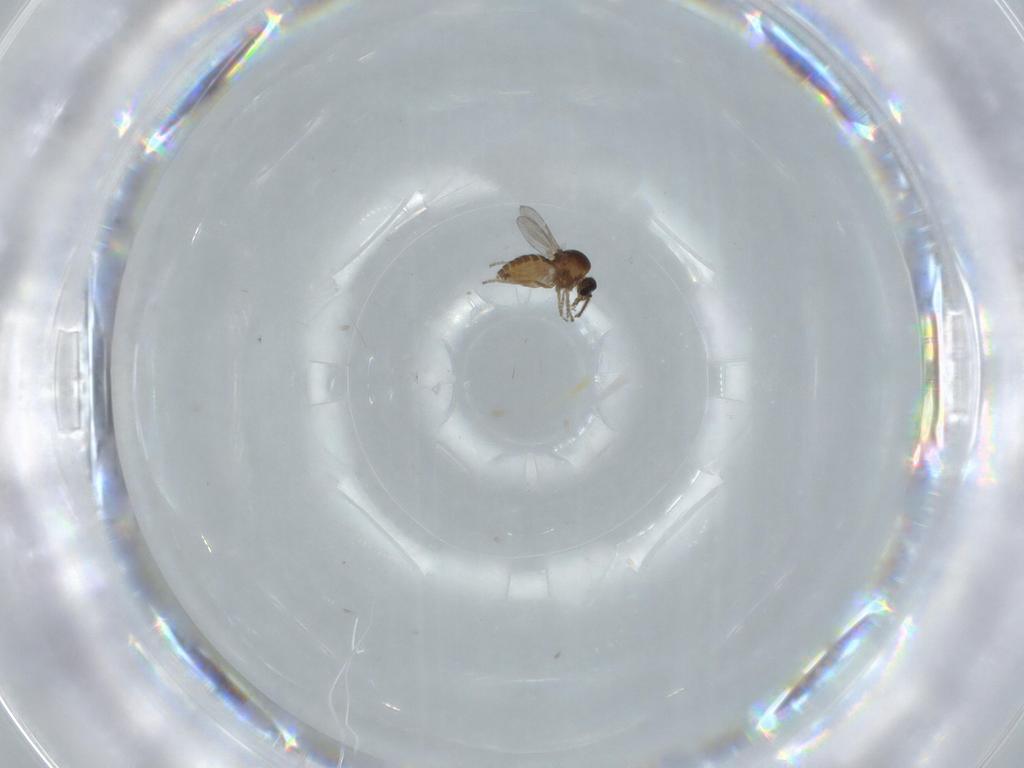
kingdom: Animalia
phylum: Arthropoda
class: Insecta
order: Diptera
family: Ceratopogonidae
